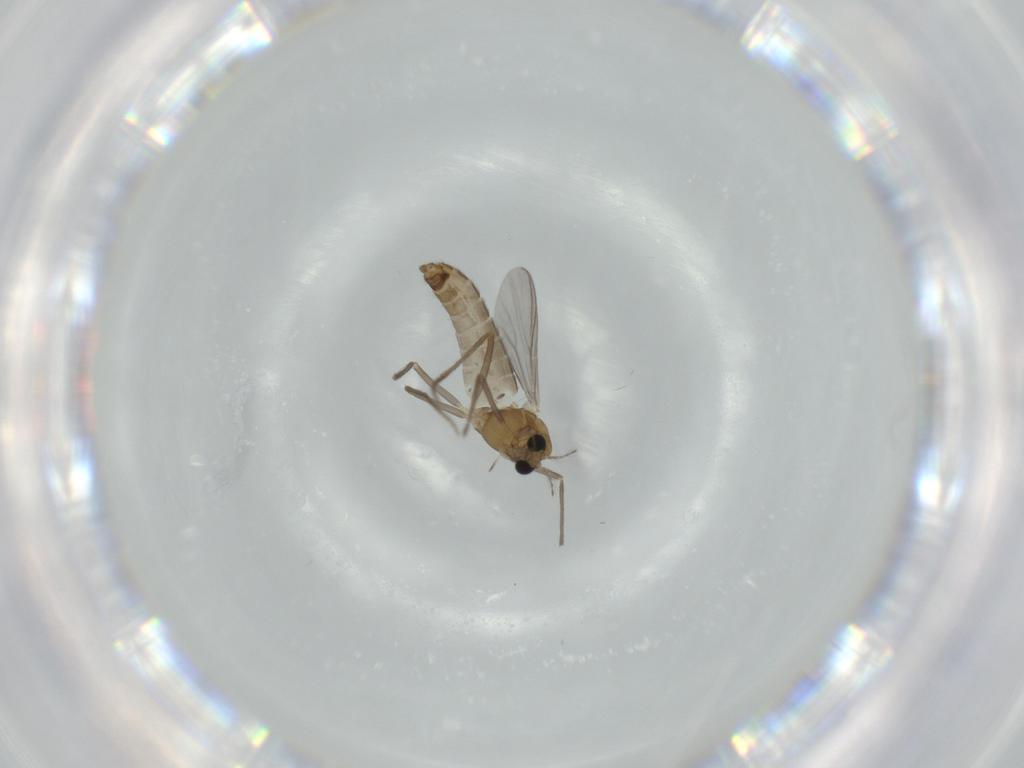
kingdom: Animalia
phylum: Arthropoda
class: Insecta
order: Diptera
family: Chironomidae
